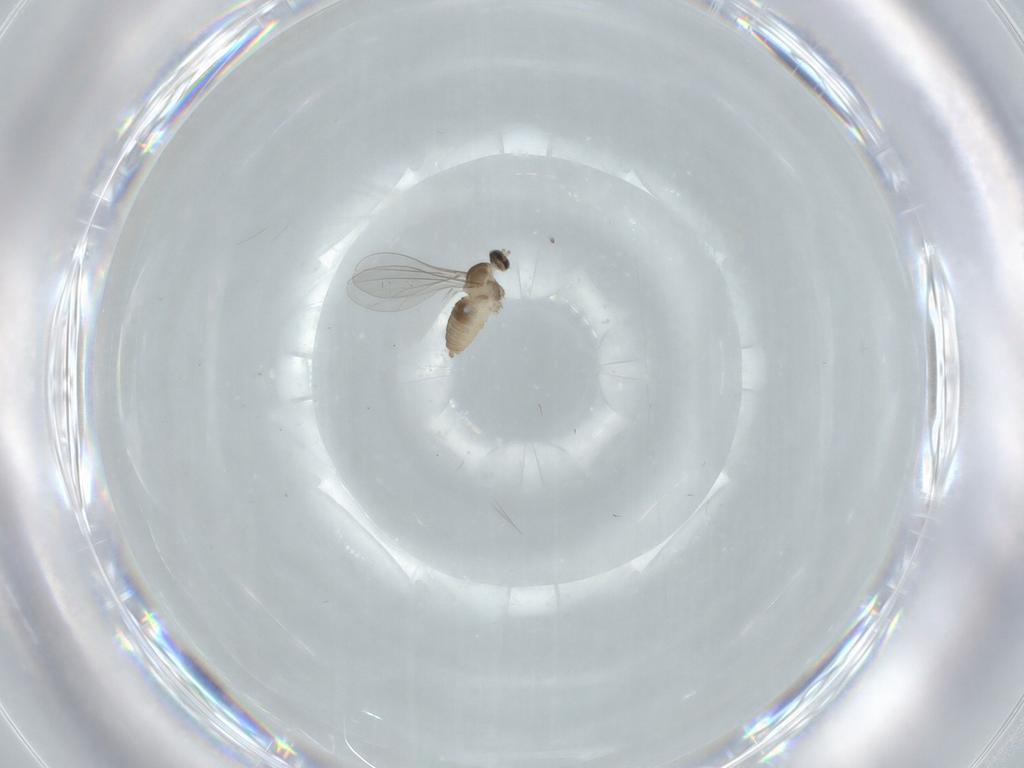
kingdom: Animalia
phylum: Arthropoda
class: Insecta
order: Diptera
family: Cecidomyiidae
